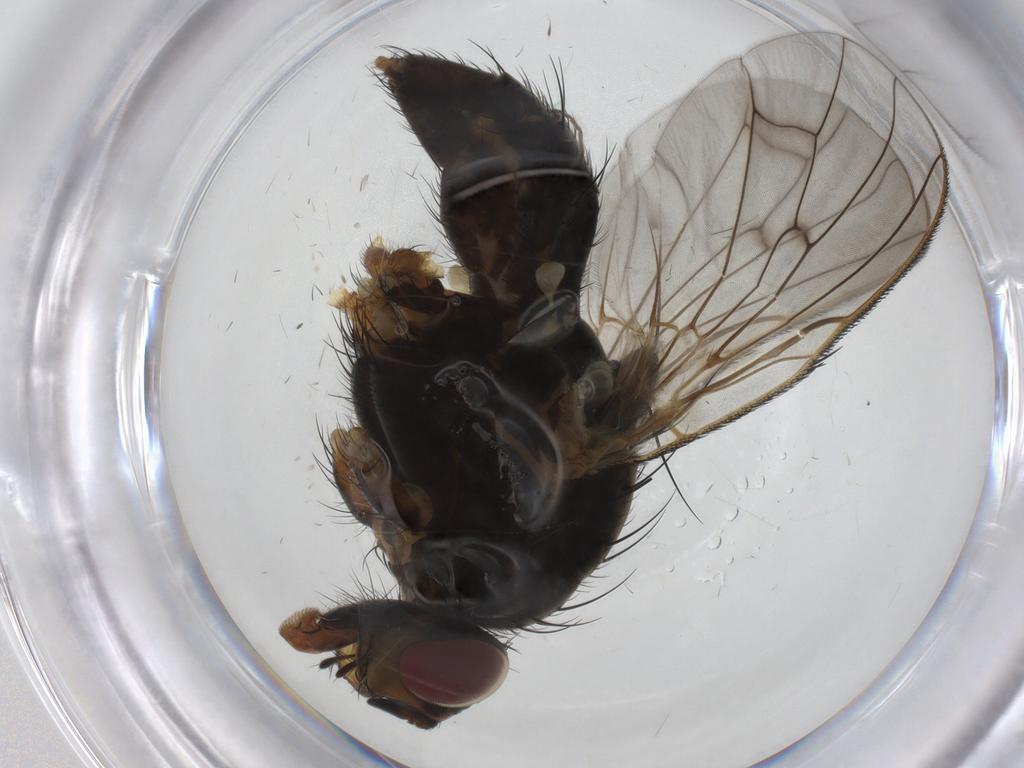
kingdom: Animalia
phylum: Arthropoda
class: Insecta
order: Diptera
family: Anthomyiidae
